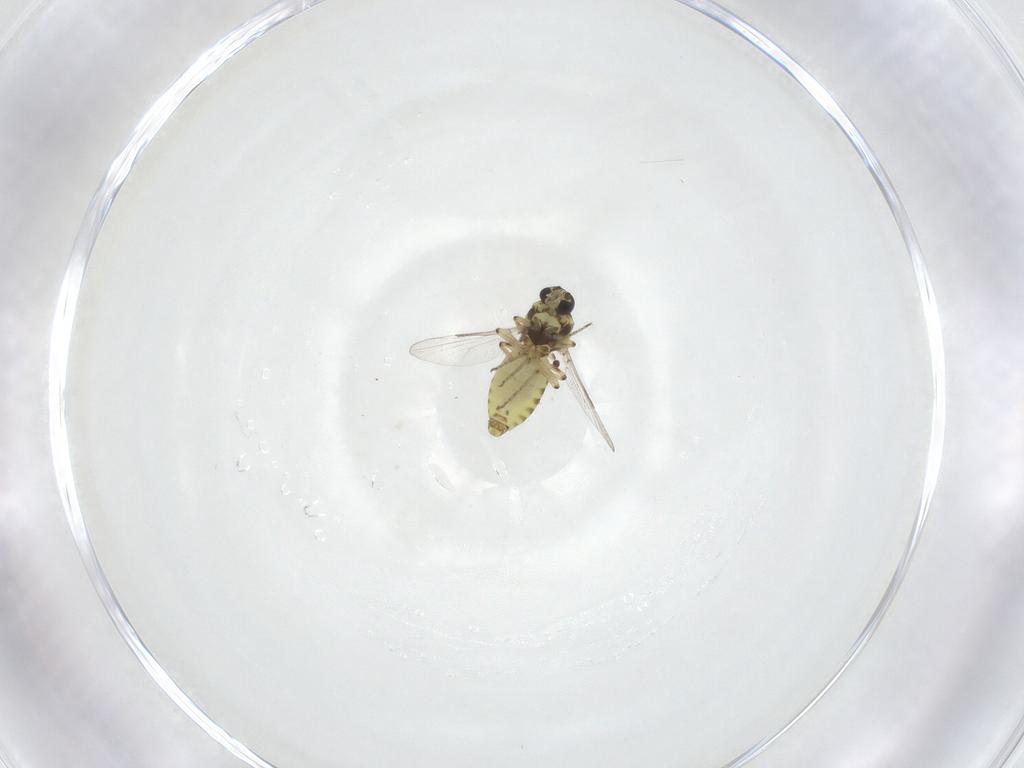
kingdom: Animalia
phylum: Arthropoda
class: Insecta
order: Diptera
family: Ceratopogonidae
